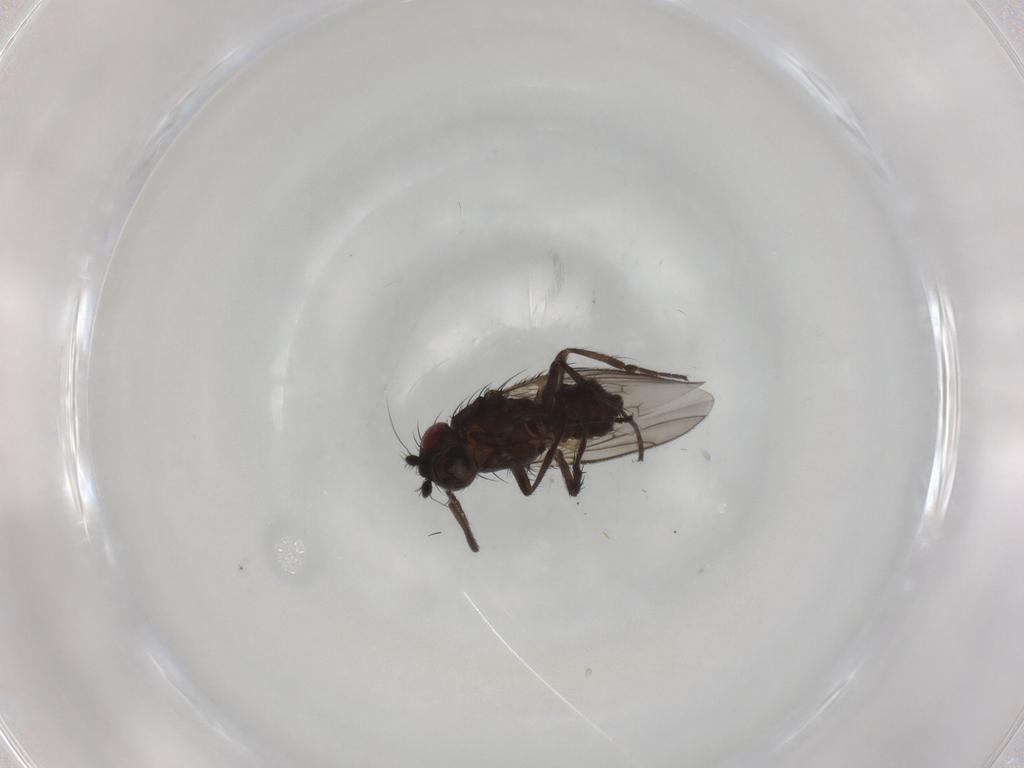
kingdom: Animalia
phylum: Arthropoda
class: Insecta
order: Diptera
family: Sphaeroceridae
